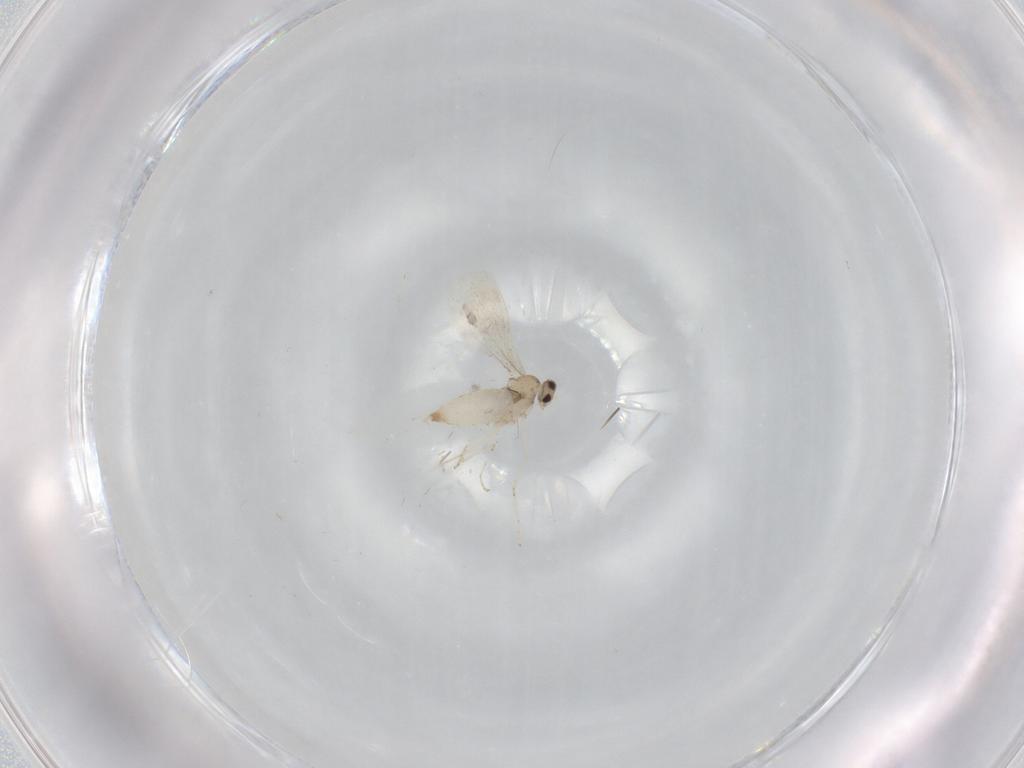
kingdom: Animalia
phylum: Arthropoda
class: Insecta
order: Diptera
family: Cecidomyiidae
